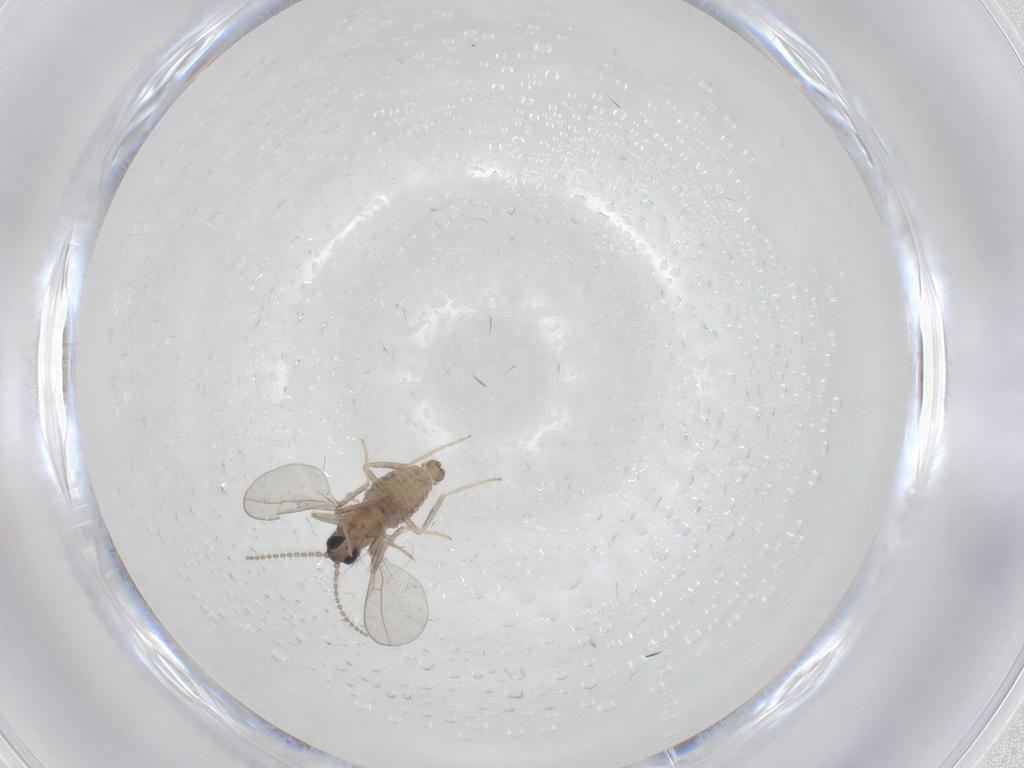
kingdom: Animalia
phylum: Arthropoda
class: Insecta
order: Diptera
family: Cecidomyiidae
